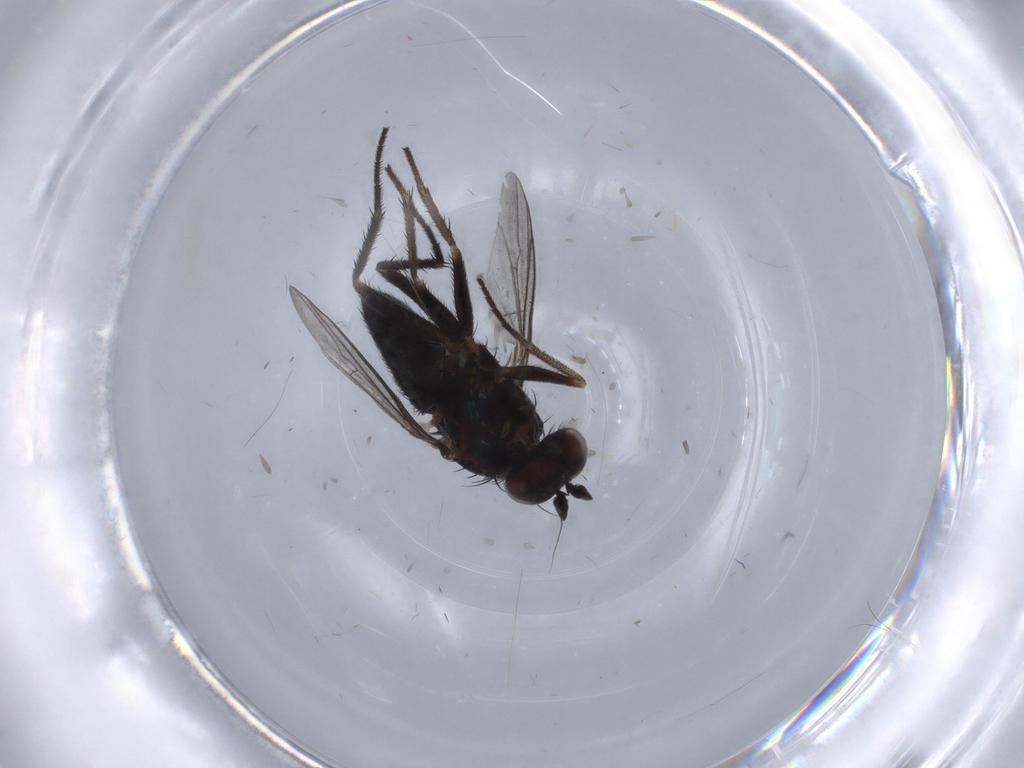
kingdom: Animalia
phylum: Arthropoda
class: Insecta
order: Diptera
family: Dolichopodidae
